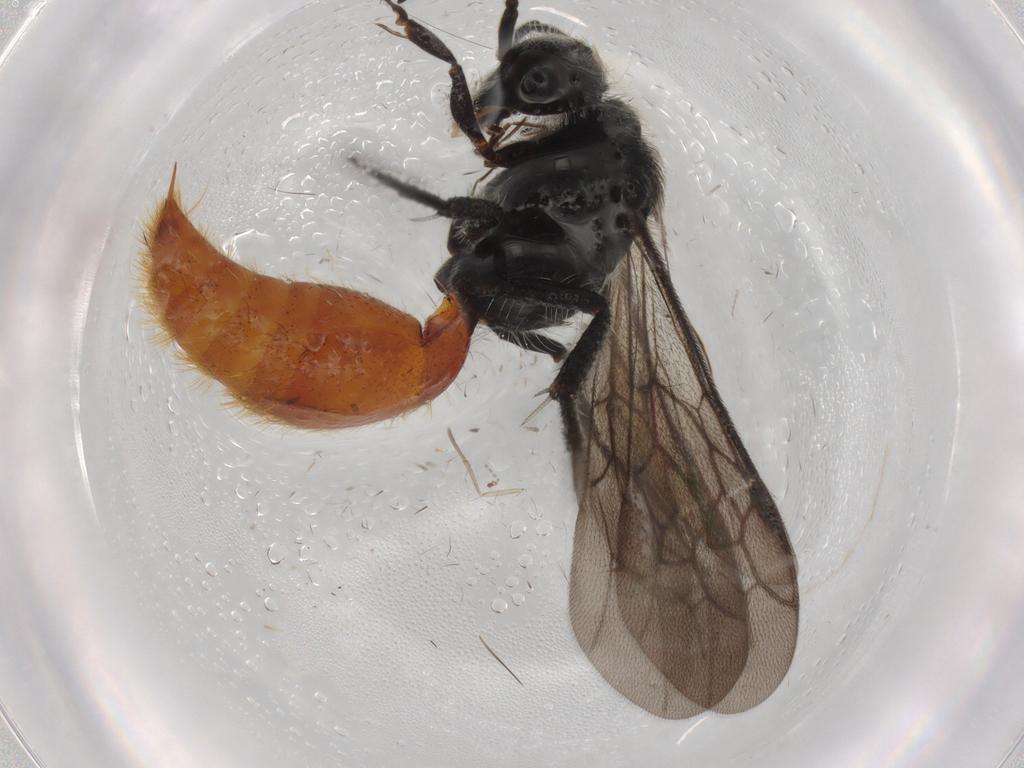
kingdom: Animalia
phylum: Arthropoda
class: Insecta
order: Hymenoptera
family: Mutillidae
